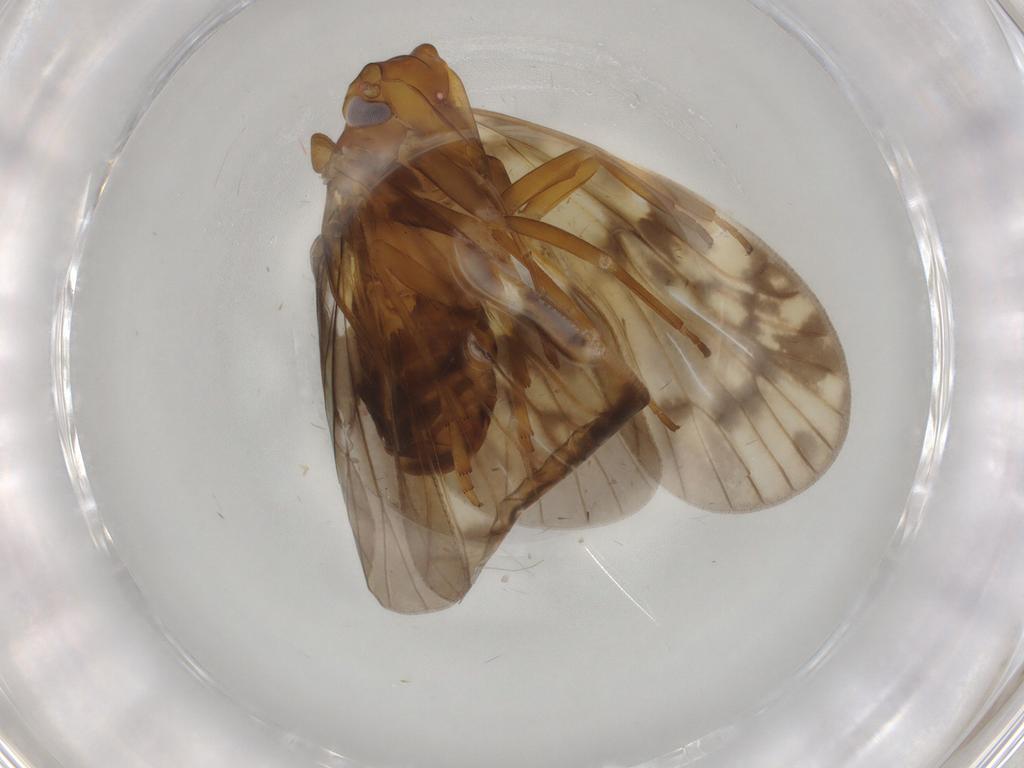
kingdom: Animalia
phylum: Arthropoda
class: Insecta
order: Hemiptera
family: Cixiidae
